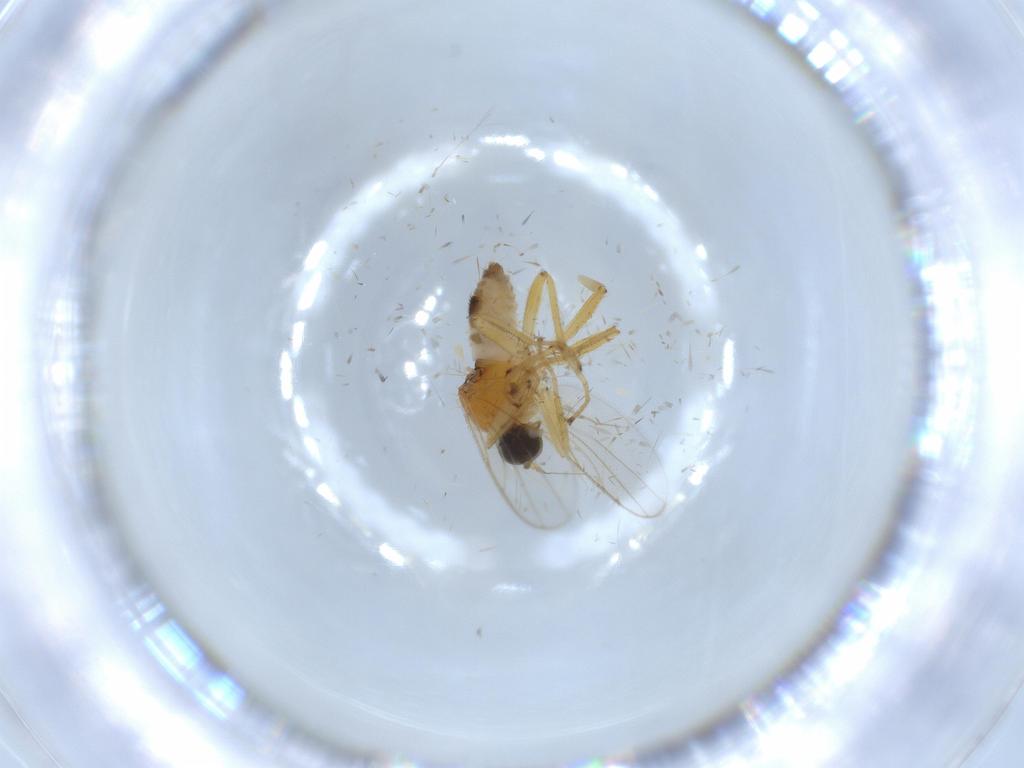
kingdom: Animalia
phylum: Arthropoda
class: Insecta
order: Diptera
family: Hybotidae
